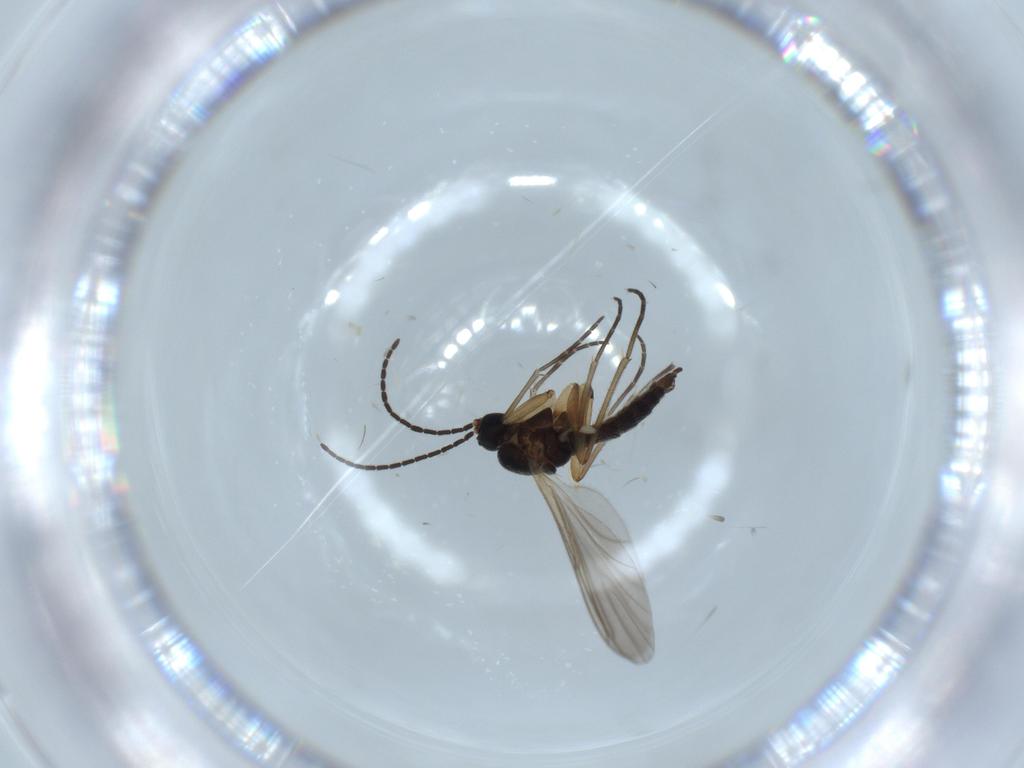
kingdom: Animalia
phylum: Arthropoda
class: Insecta
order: Diptera
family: Sciaridae
